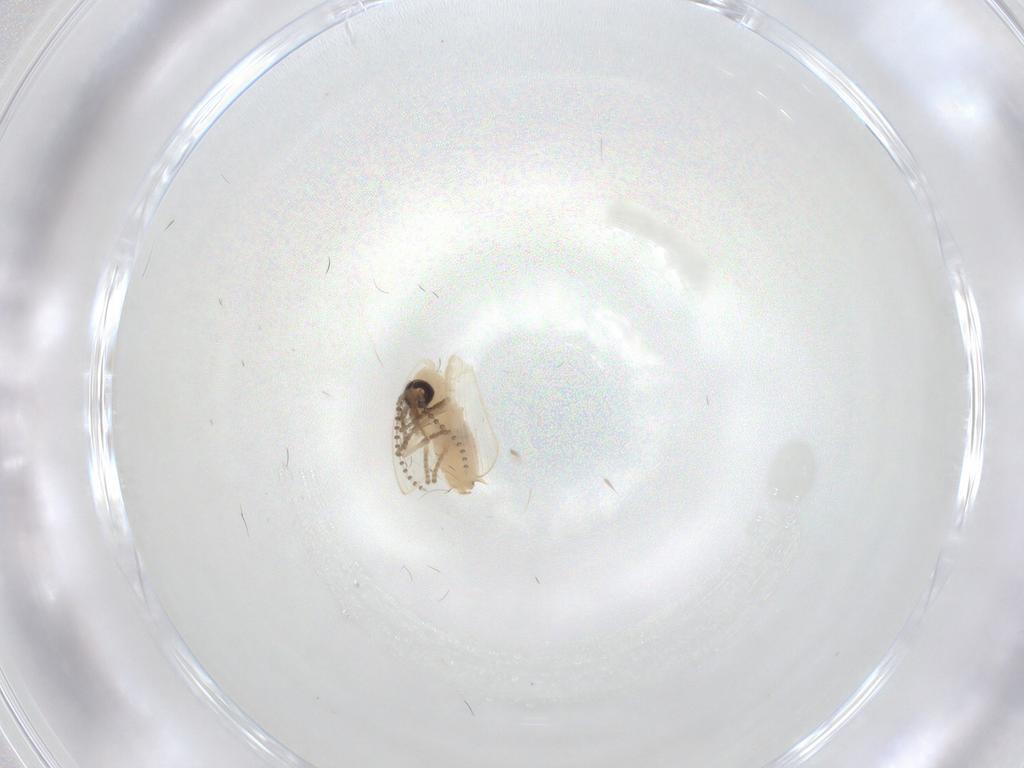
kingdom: Animalia
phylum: Arthropoda
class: Insecta
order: Diptera
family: Psychodidae
